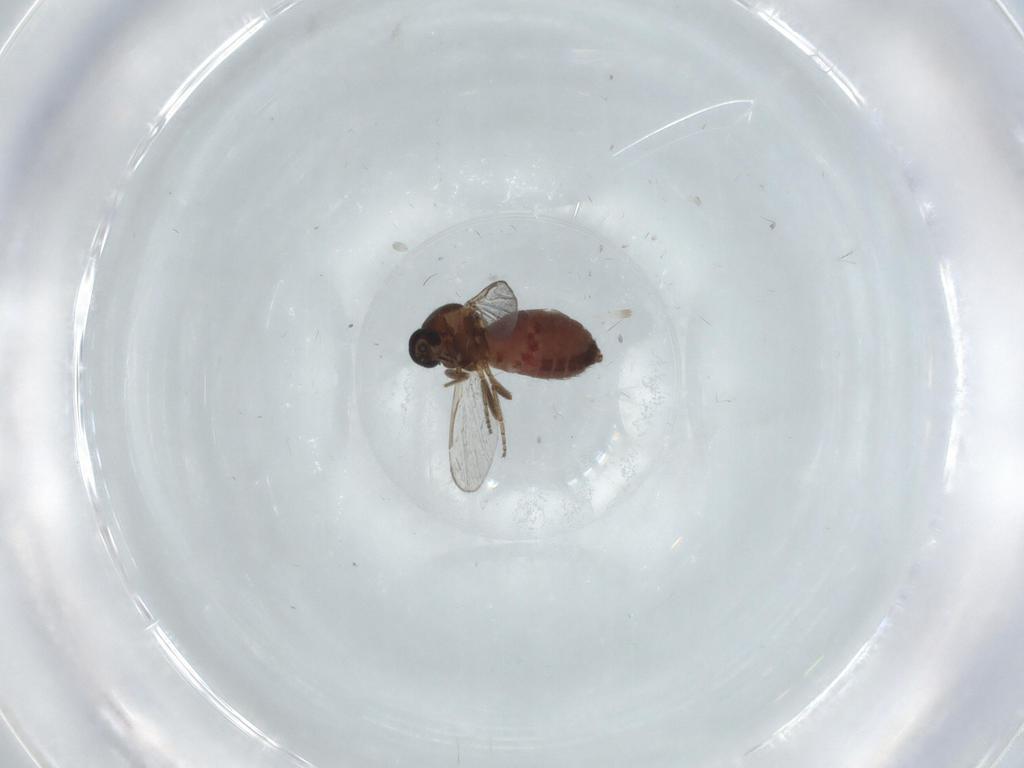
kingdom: Animalia
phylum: Arthropoda
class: Insecta
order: Diptera
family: Ceratopogonidae
